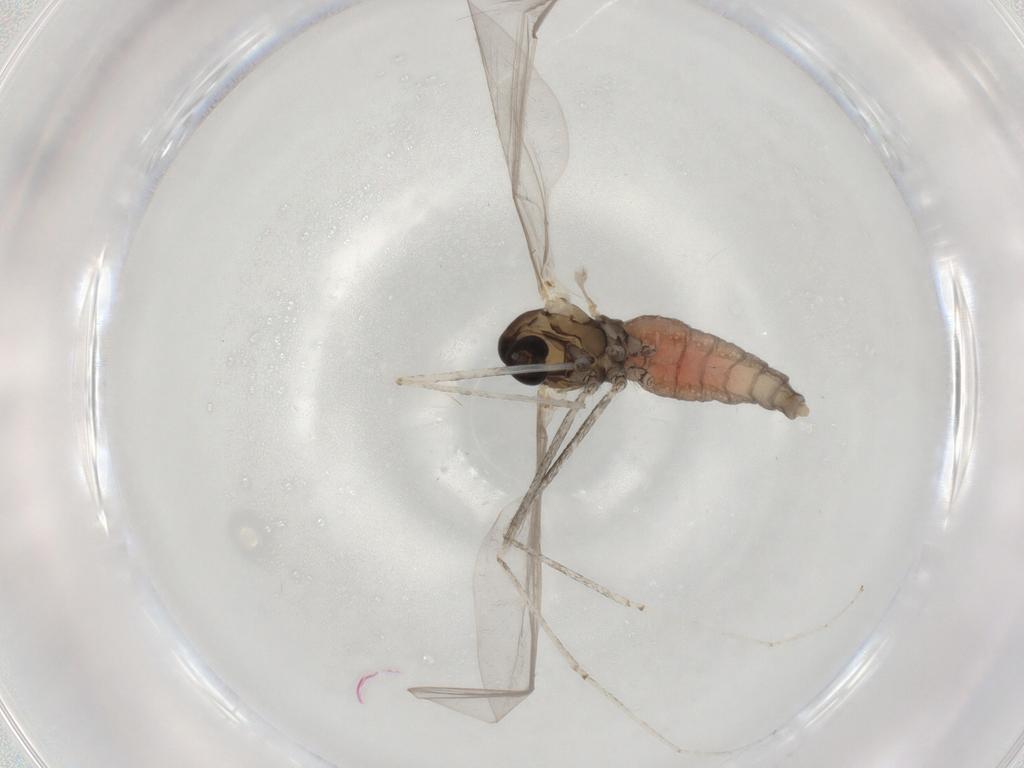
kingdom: Animalia
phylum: Arthropoda
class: Insecta
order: Diptera
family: Cecidomyiidae
